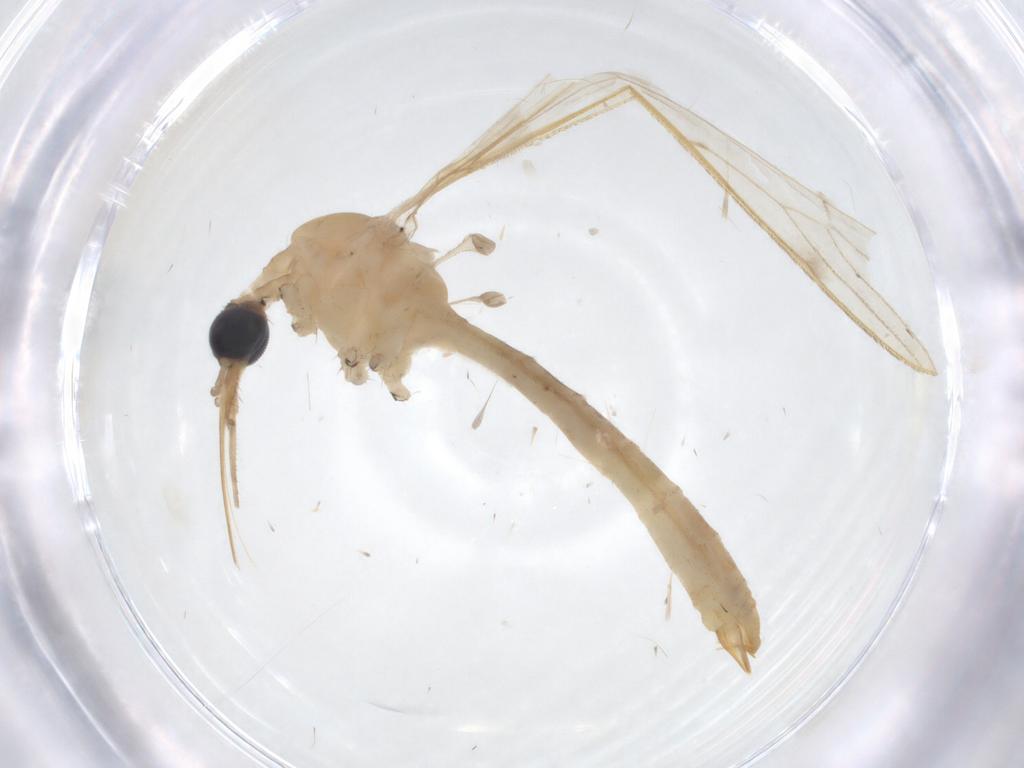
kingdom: Animalia
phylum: Arthropoda
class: Insecta
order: Diptera
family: Limoniidae
